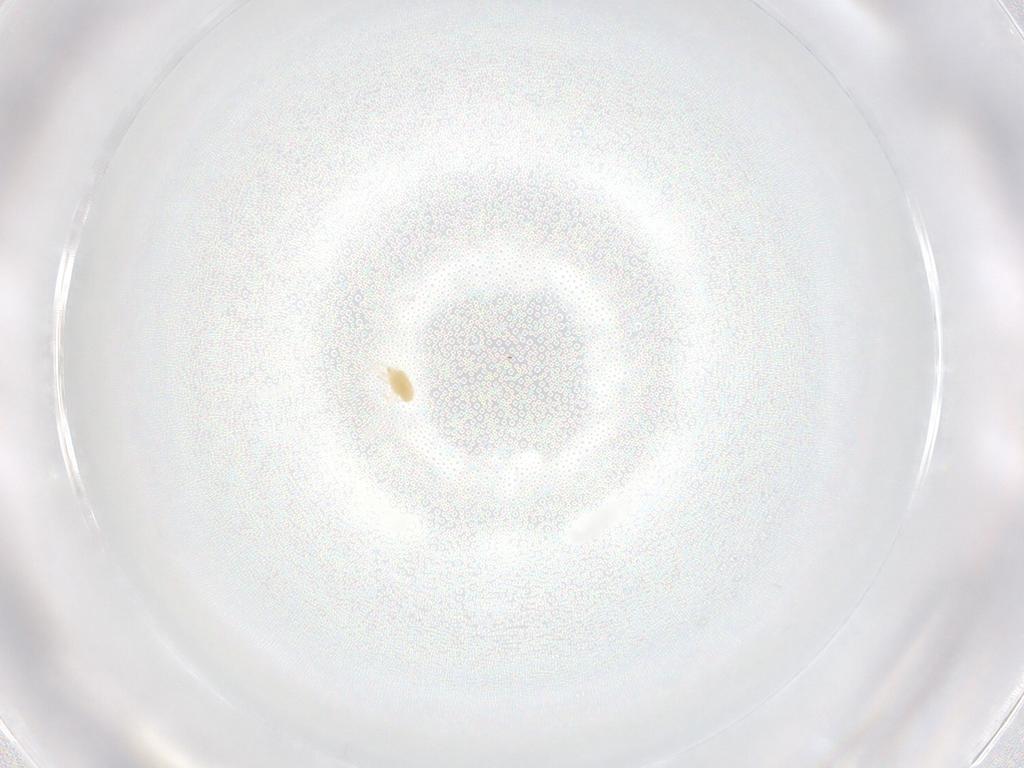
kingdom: Animalia
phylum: Arthropoda
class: Arachnida
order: Trombidiformes
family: Tetranychidae
